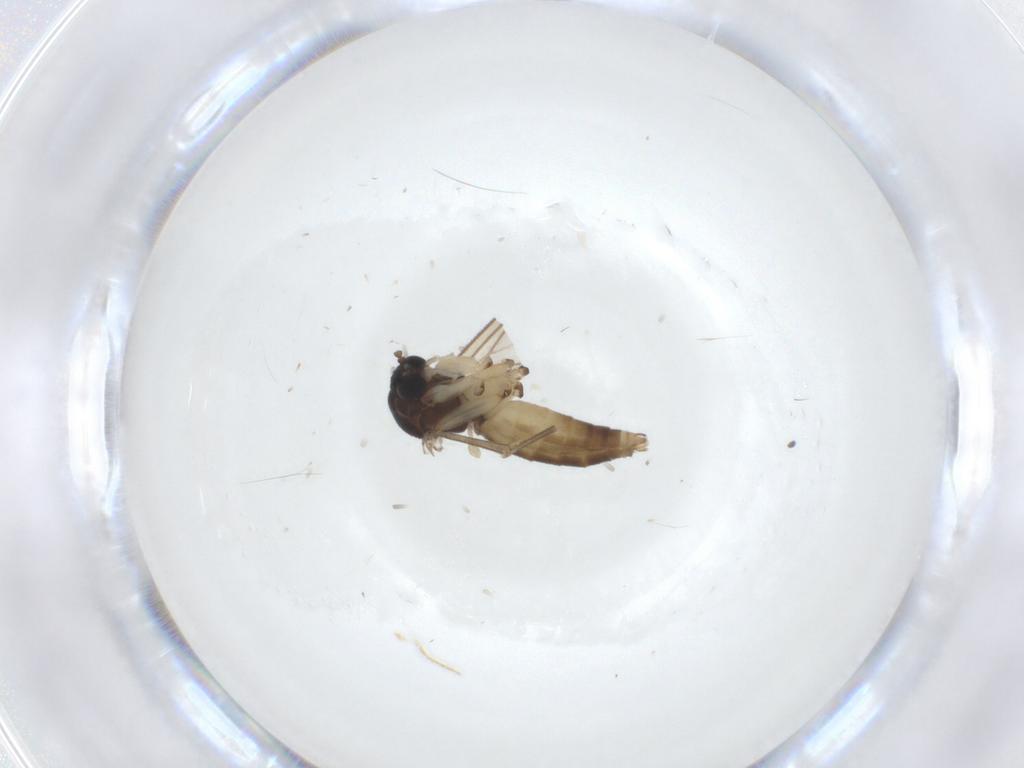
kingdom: Animalia
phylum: Arthropoda
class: Insecta
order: Diptera
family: Phoridae
